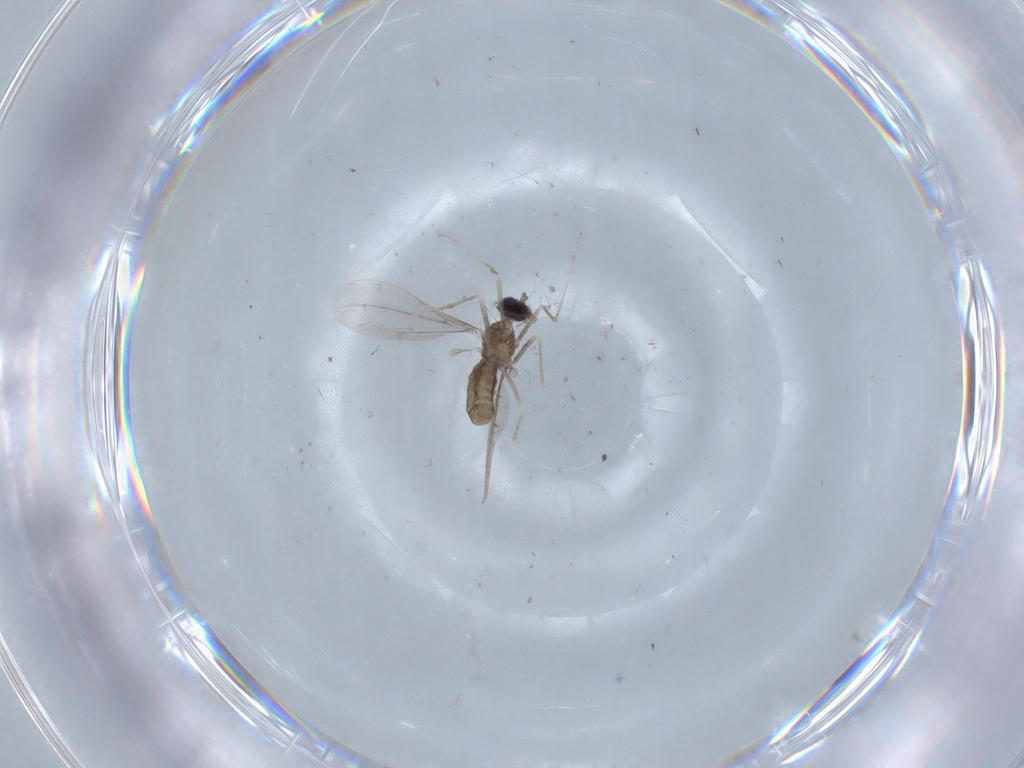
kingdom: Animalia
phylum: Arthropoda
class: Insecta
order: Diptera
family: Cecidomyiidae
